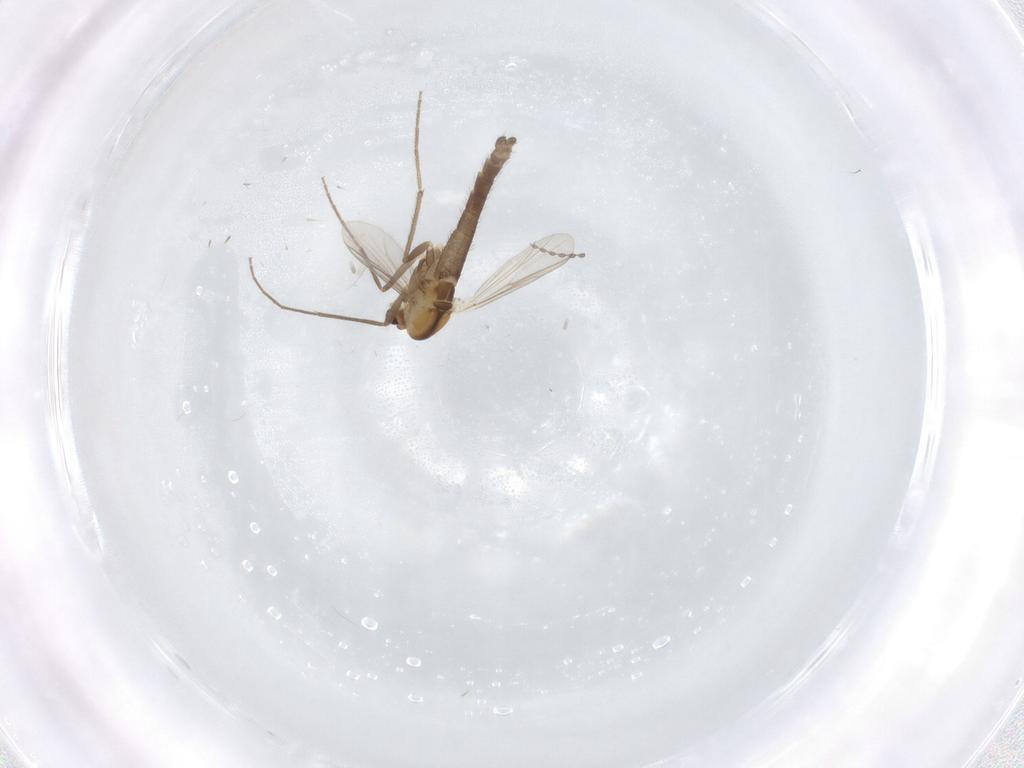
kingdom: Animalia
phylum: Arthropoda
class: Insecta
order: Diptera
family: Chironomidae
